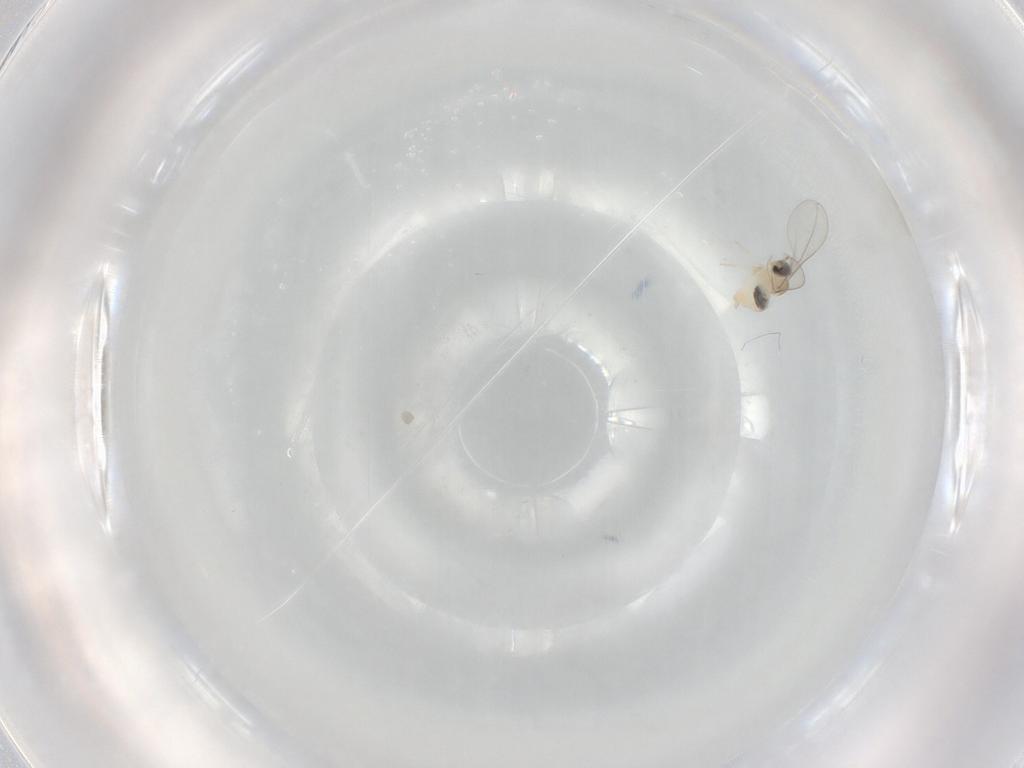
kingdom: Animalia
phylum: Arthropoda
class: Insecta
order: Diptera
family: Cecidomyiidae
